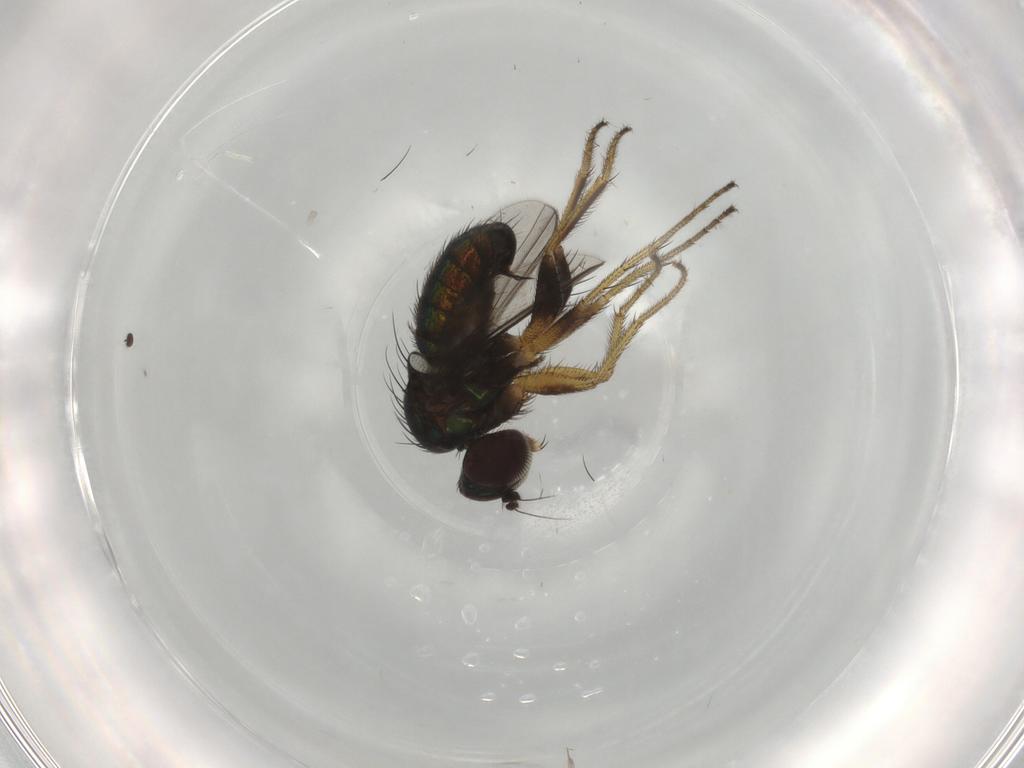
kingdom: Animalia
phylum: Arthropoda
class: Insecta
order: Diptera
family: Dolichopodidae
